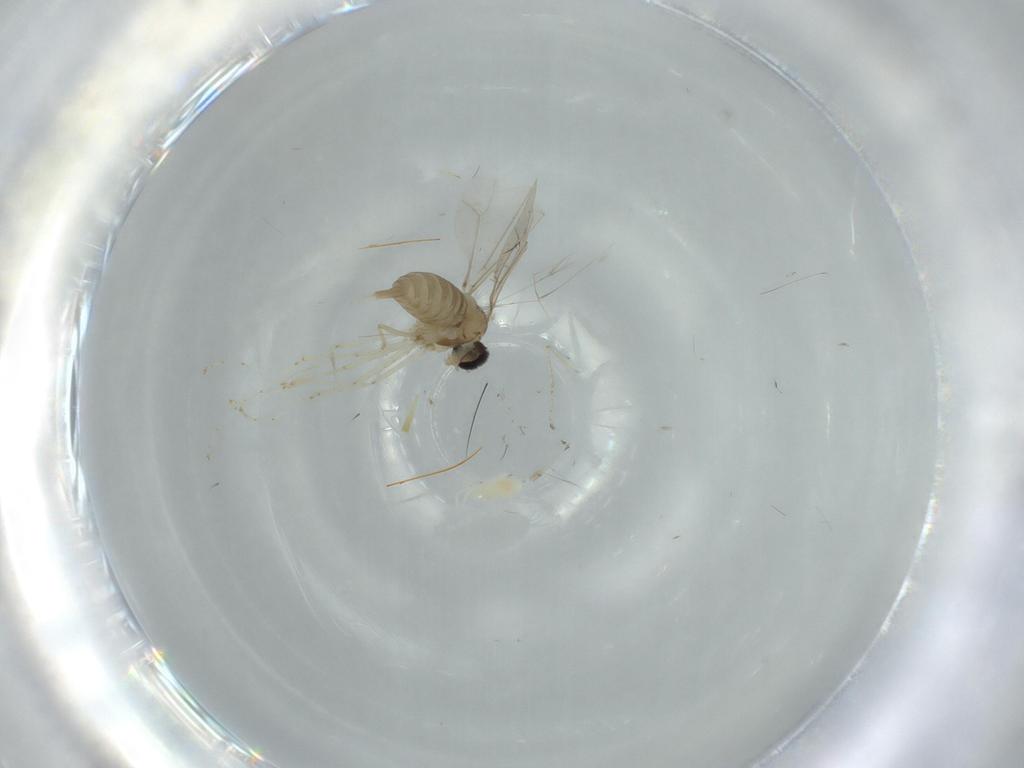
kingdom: Animalia
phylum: Arthropoda
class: Insecta
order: Diptera
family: Cecidomyiidae
